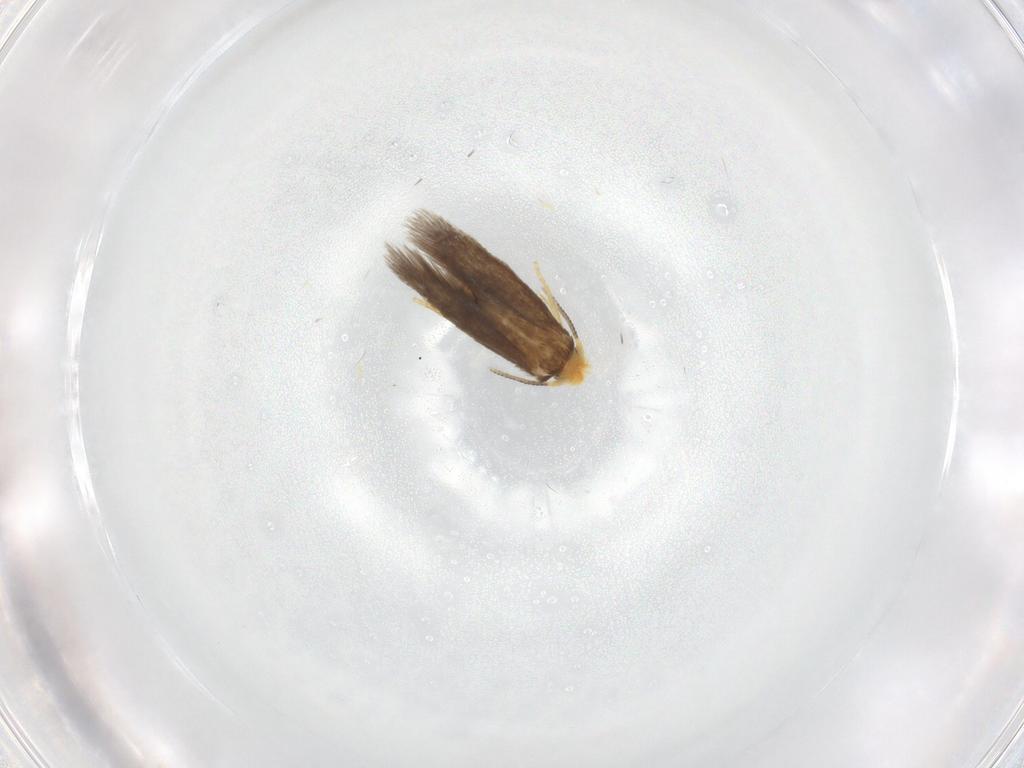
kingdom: Animalia
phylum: Arthropoda
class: Insecta
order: Lepidoptera
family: Nepticulidae
